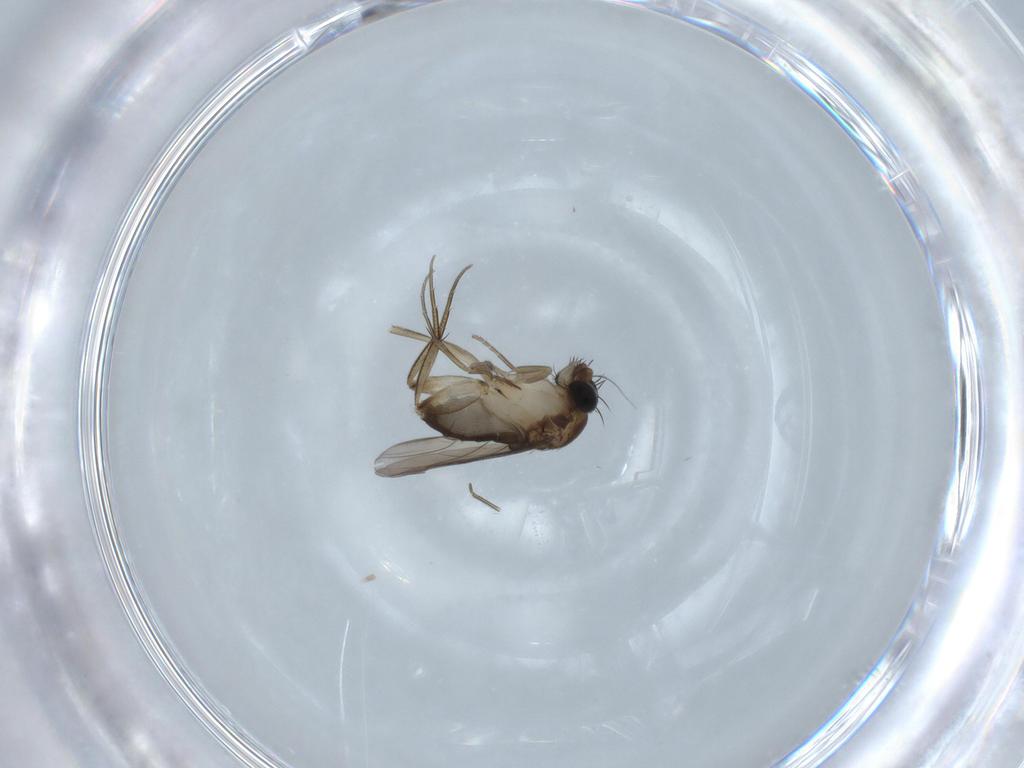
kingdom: Animalia
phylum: Arthropoda
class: Insecta
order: Diptera
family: Phoridae
